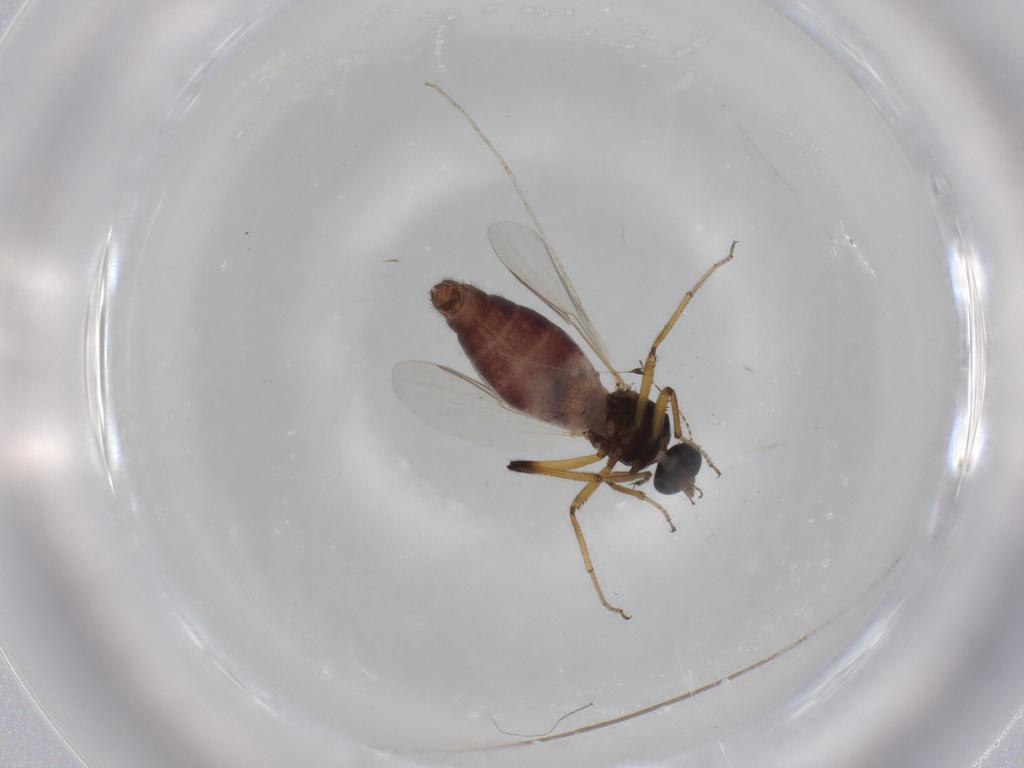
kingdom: Animalia
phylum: Arthropoda
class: Insecta
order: Diptera
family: Ceratopogonidae
